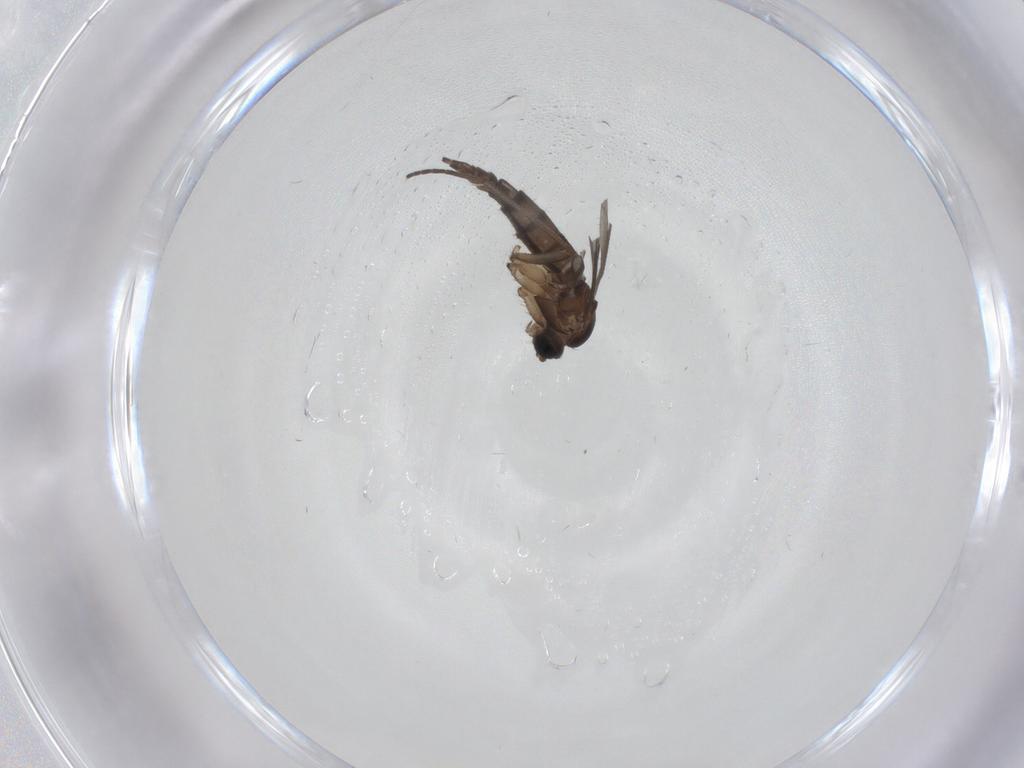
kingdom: Animalia
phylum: Arthropoda
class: Insecta
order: Diptera
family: Sciaridae
